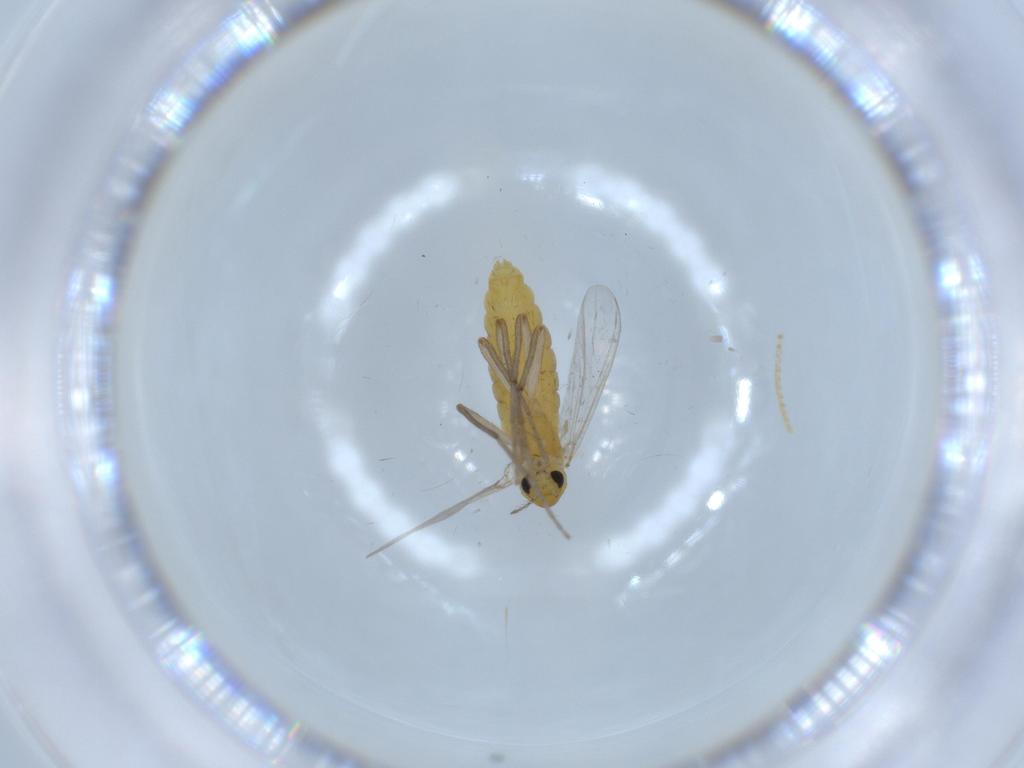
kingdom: Animalia
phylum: Arthropoda
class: Insecta
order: Diptera
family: Chironomidae
